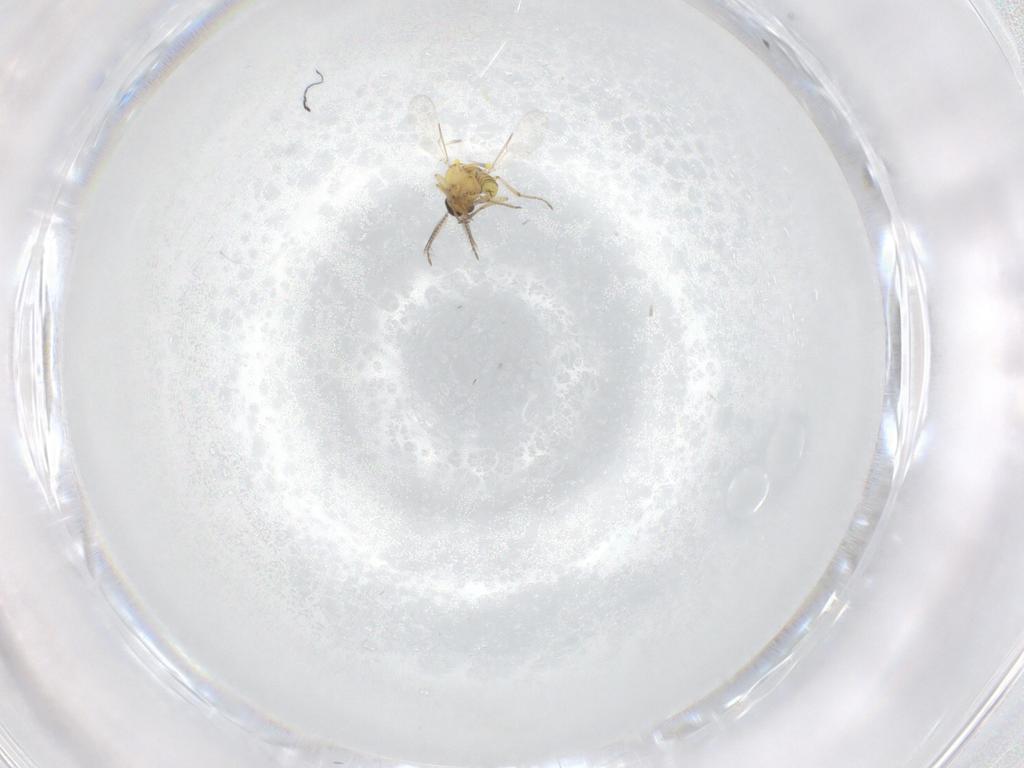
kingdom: Animalia
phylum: Arthropoda
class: Insecta
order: Diptera
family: Ceratopogonidae
